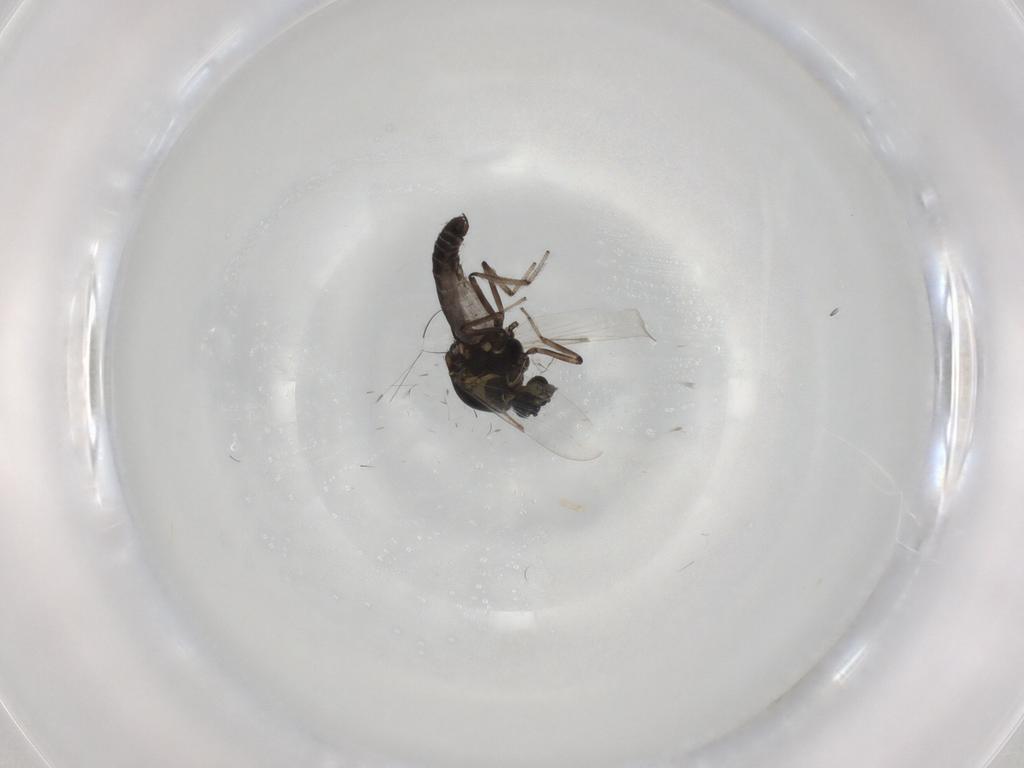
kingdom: Animalia
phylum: Arthropoda
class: Insecta
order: Diptera
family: Ceratopogonidae
